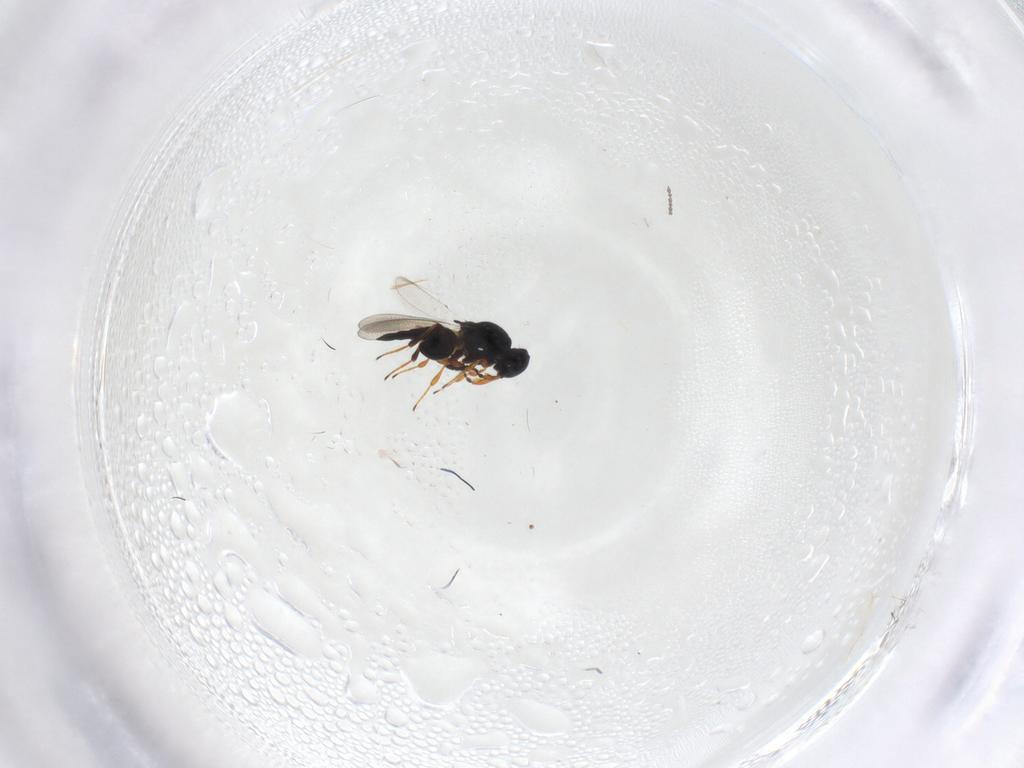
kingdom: Animalia
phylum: Arthropoda
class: Insecta
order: Hymenoptera
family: Platygastridae
